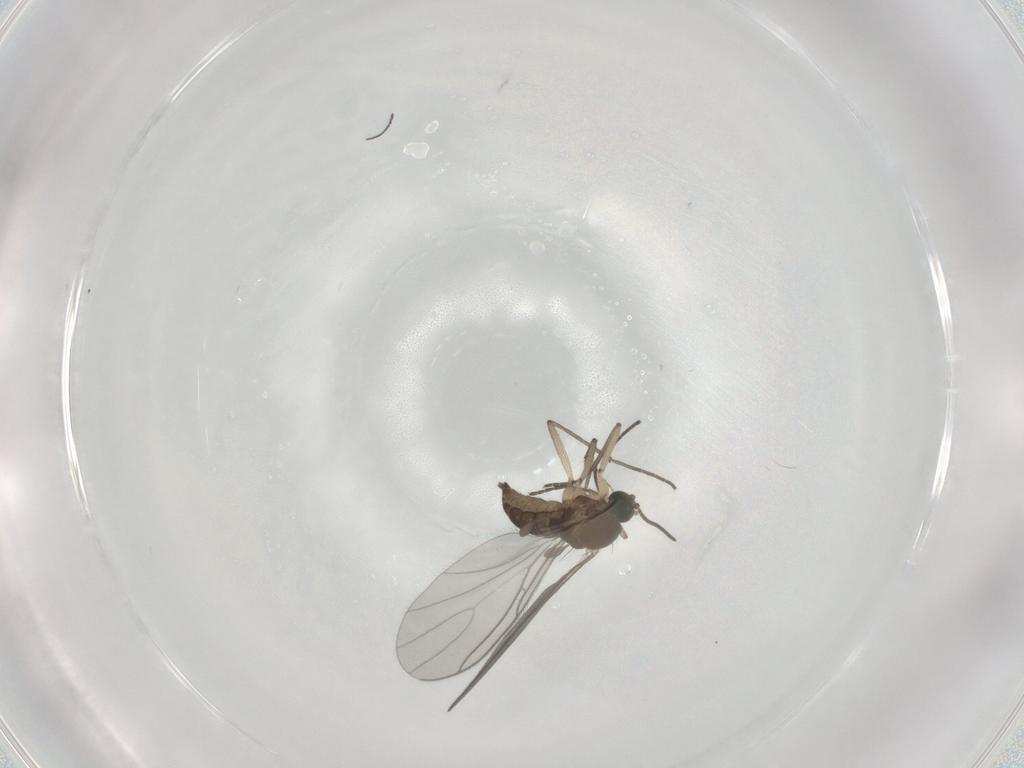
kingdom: Animalia
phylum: Arthropoda
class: Insecta
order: Diptera
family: Sciaridae
